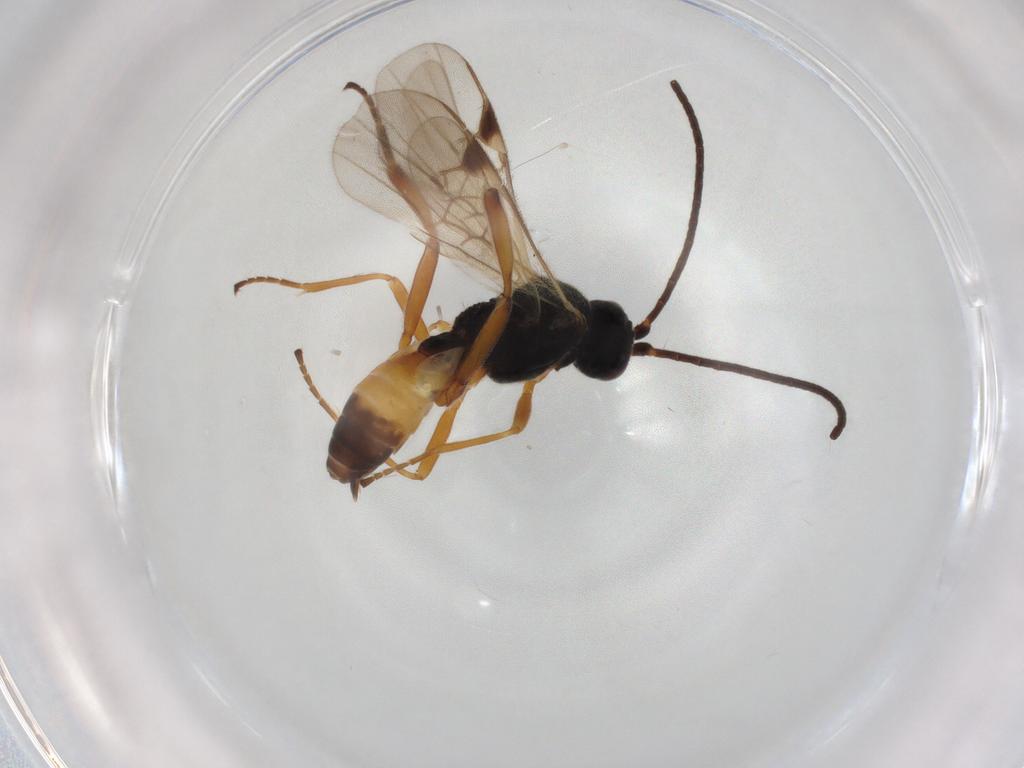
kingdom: Animalia
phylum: Arthropoda
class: Insecta
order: Hymenoptera
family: Braconidae
